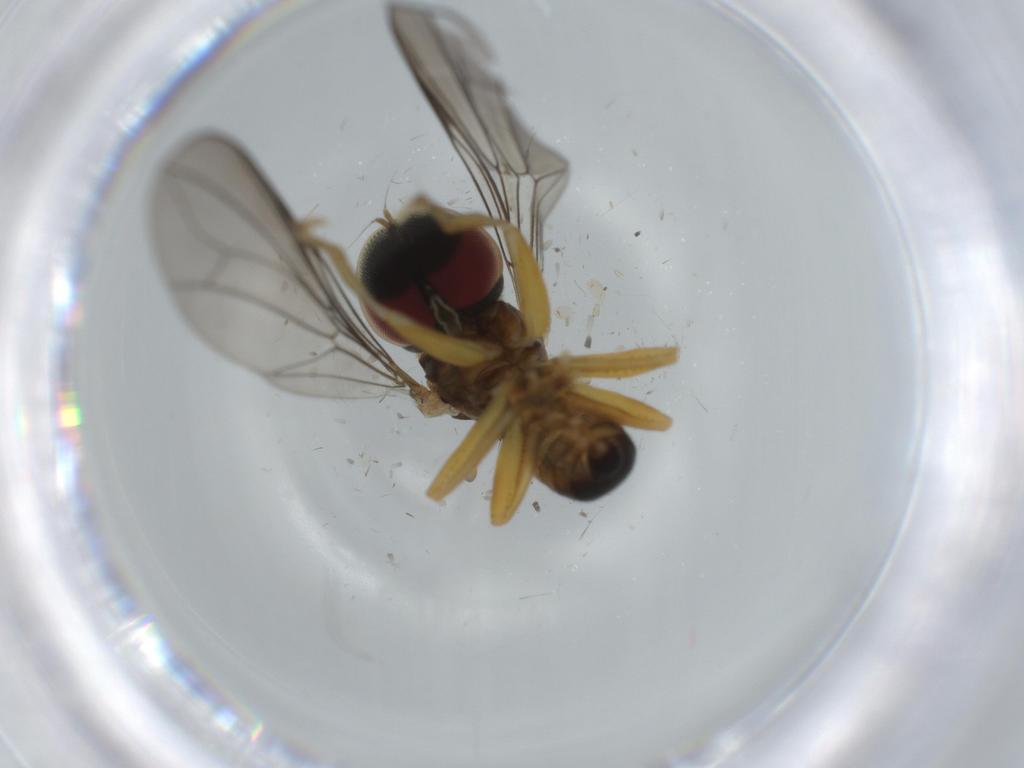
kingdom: Animalia
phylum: Arthropoda
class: Insecta
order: Diptera
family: Pipunculidae
